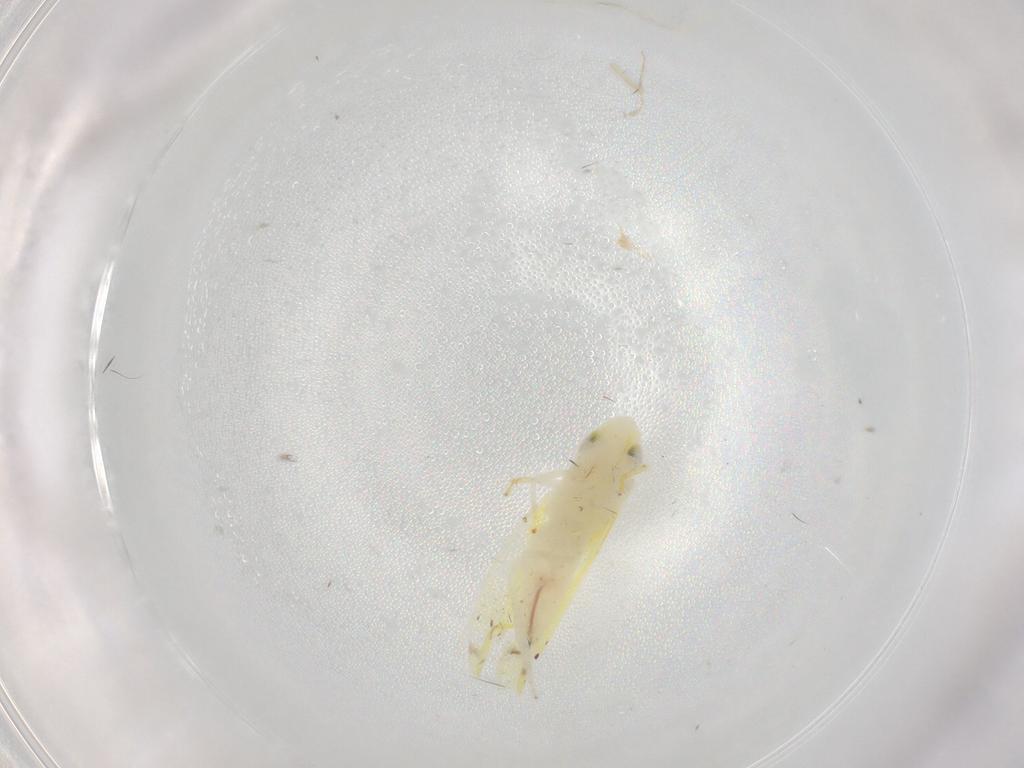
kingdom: Animalia
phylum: Arthropoda
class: Insecta
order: Hemiptera
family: Cicadellidae
